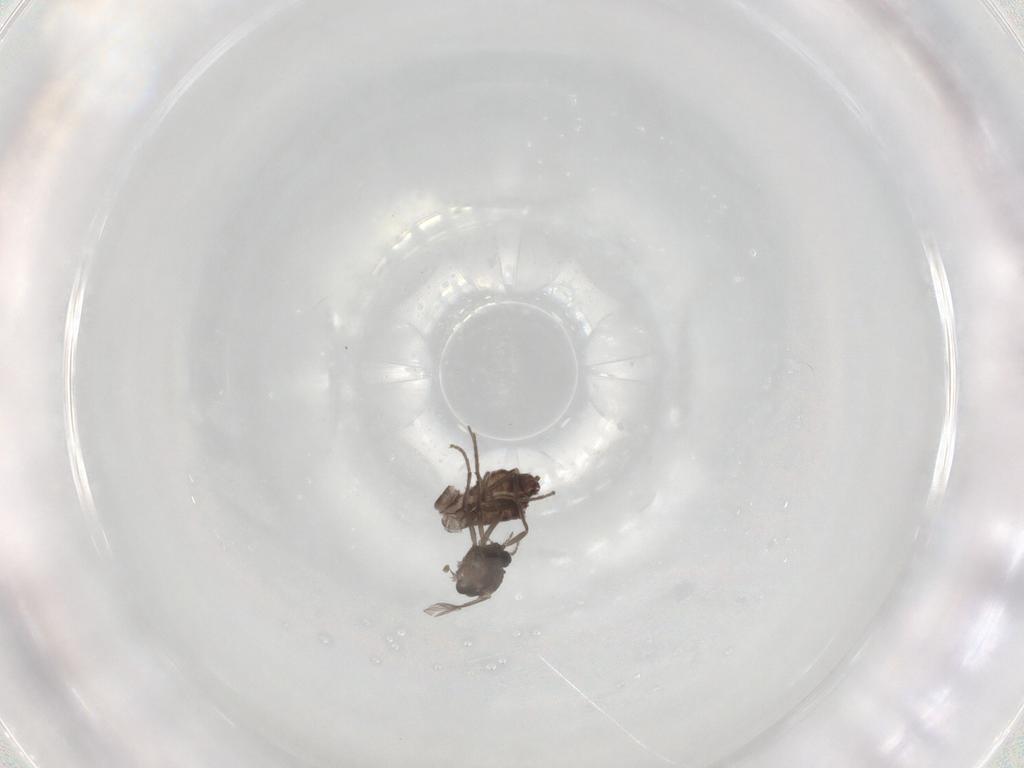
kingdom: Animalia
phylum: Arthropoda
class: Insecta
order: Diptera
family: Chironomidae
